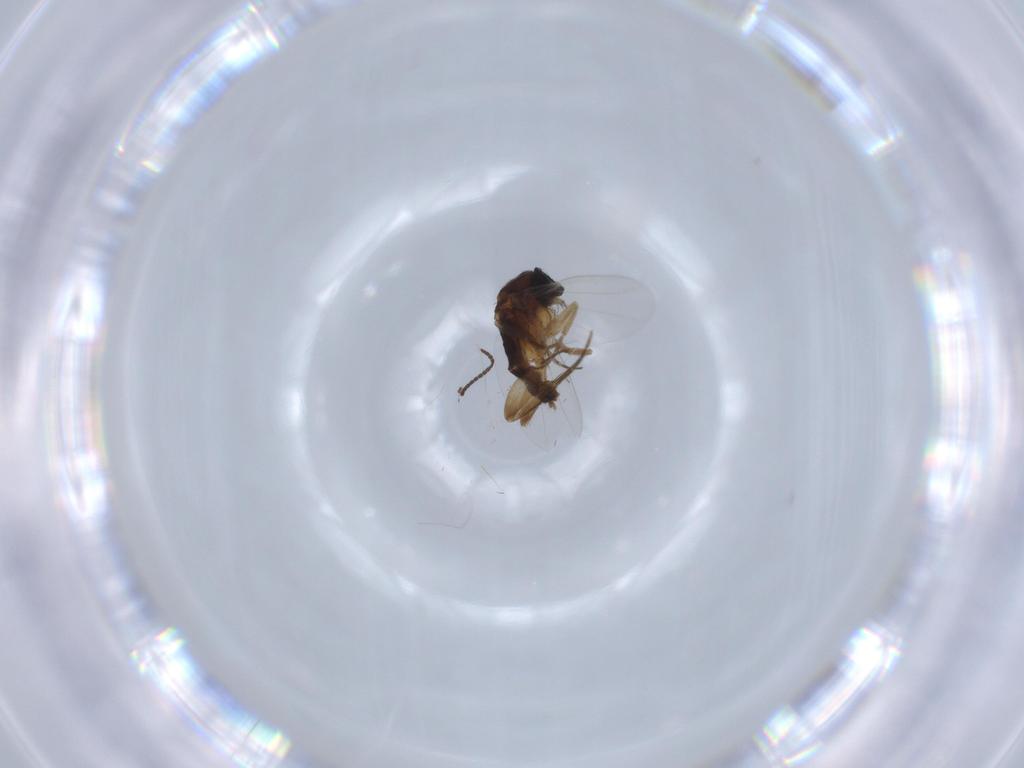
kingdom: Animalia
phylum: Arthropoda
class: Insecta
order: Diptera
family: Phoridae
